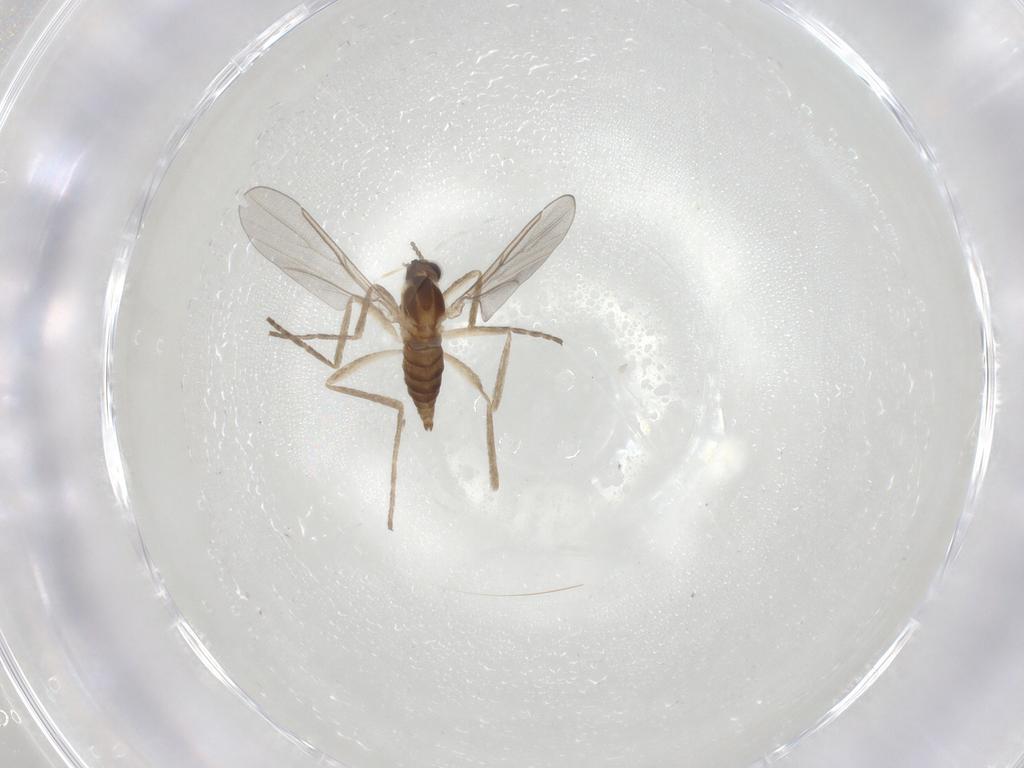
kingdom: Animalia
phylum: Arthropoda
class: Insecta
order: Diptera
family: Cecidomyiidae
